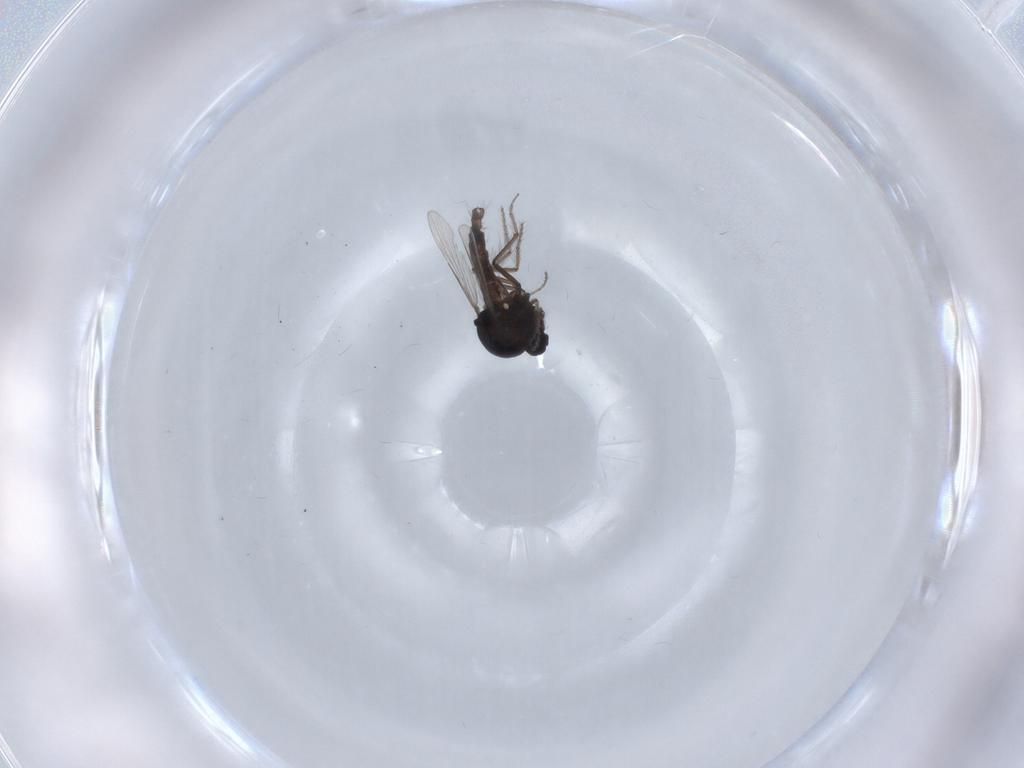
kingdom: Animalia
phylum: Arthropoda
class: Insecta
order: Diptera
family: Ceratopogonidae
